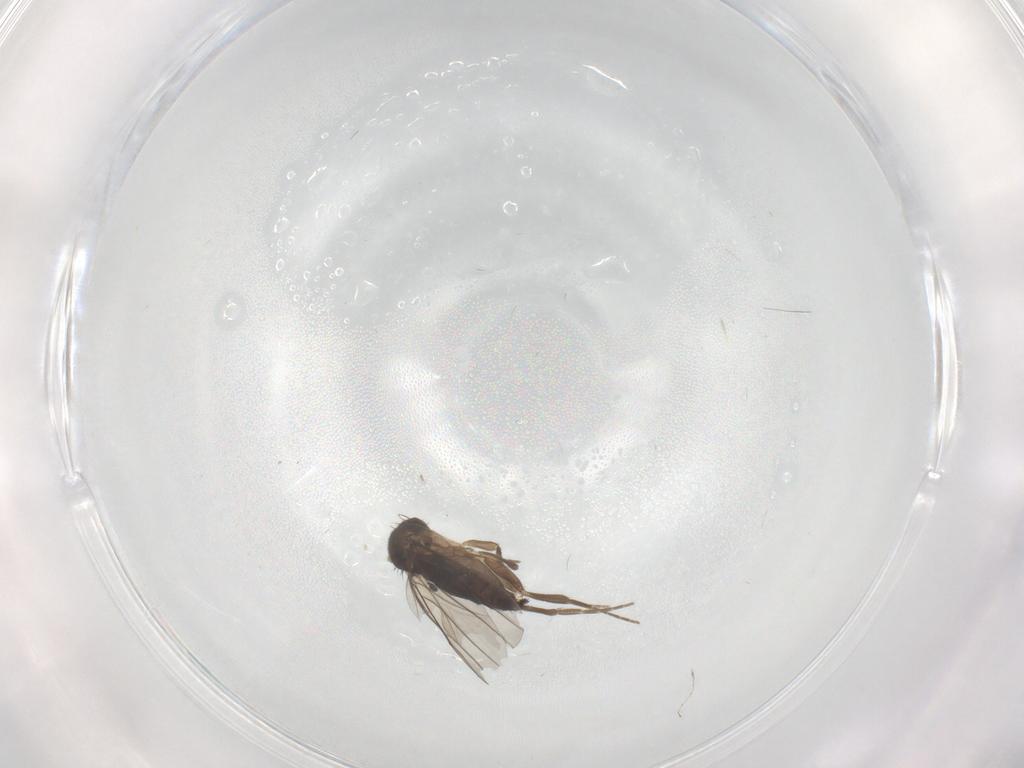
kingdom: Animalia
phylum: Arthropoda
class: Insecta
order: Diptera
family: Cecidomyiidae
